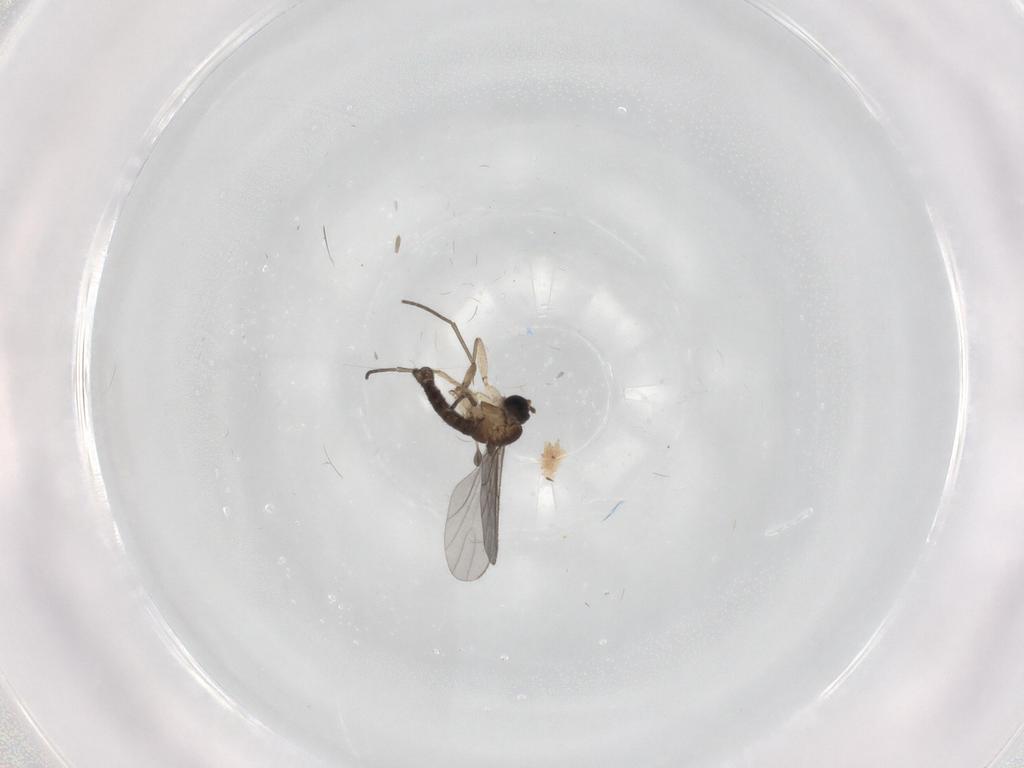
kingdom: Animalia
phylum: Arthropoda
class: Insecta
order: Diptera
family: Sciaridae
